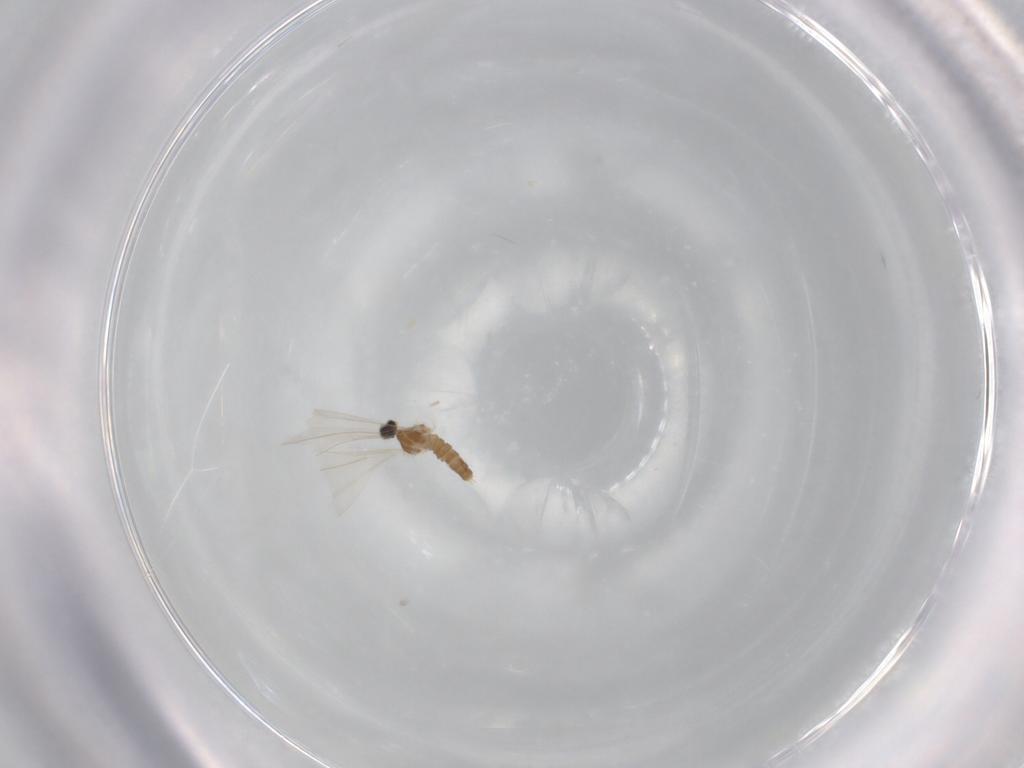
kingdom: Animalia
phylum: Arthropoda
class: Insecta
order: Diptera
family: Cecidomyiidae
